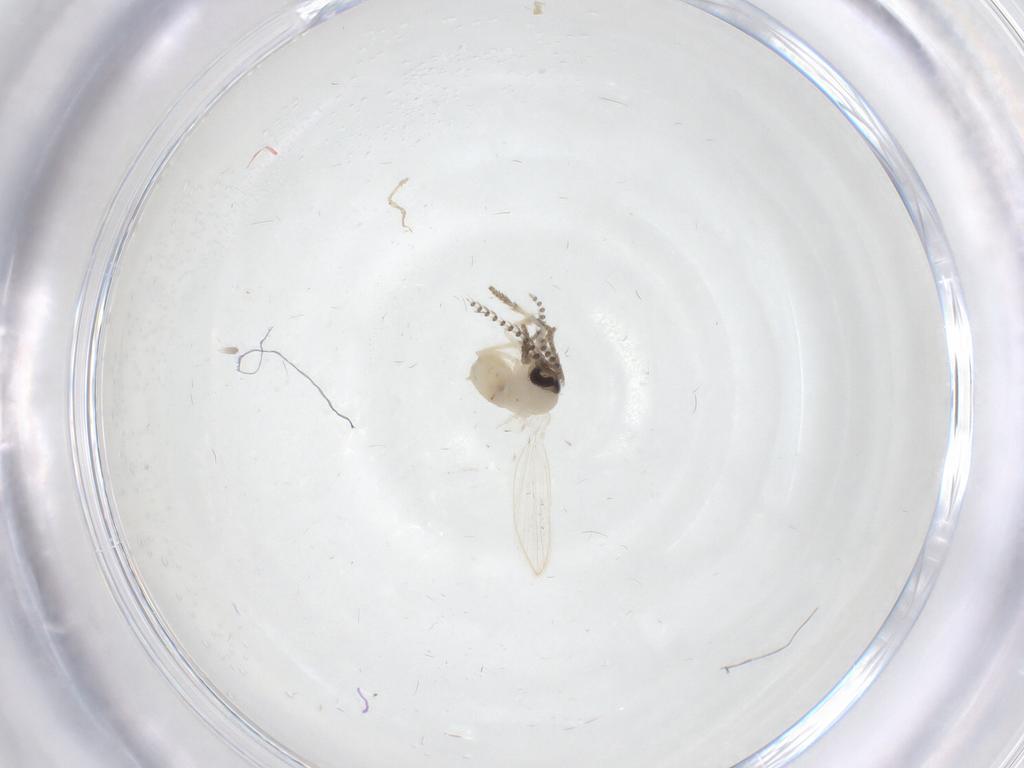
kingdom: Animalia
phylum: Arthropoda
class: Insecta
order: Diptera
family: Psychodidae
